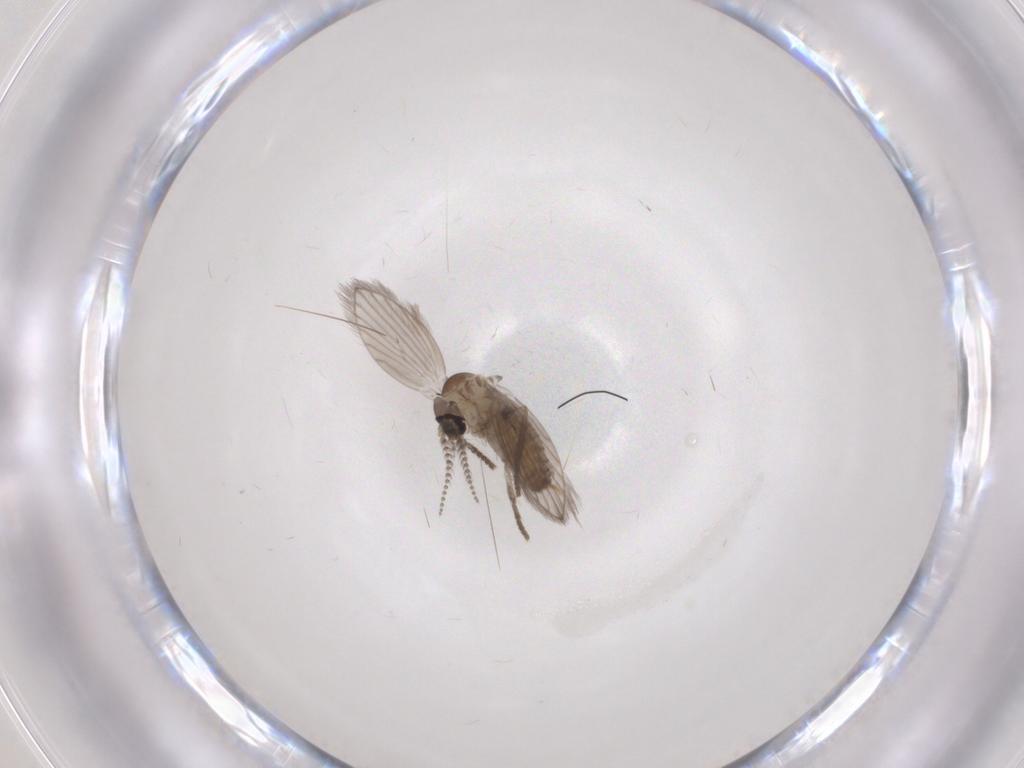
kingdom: Animalia
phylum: Arthropoda
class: Insecta
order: Diptera
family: Psychodidae
